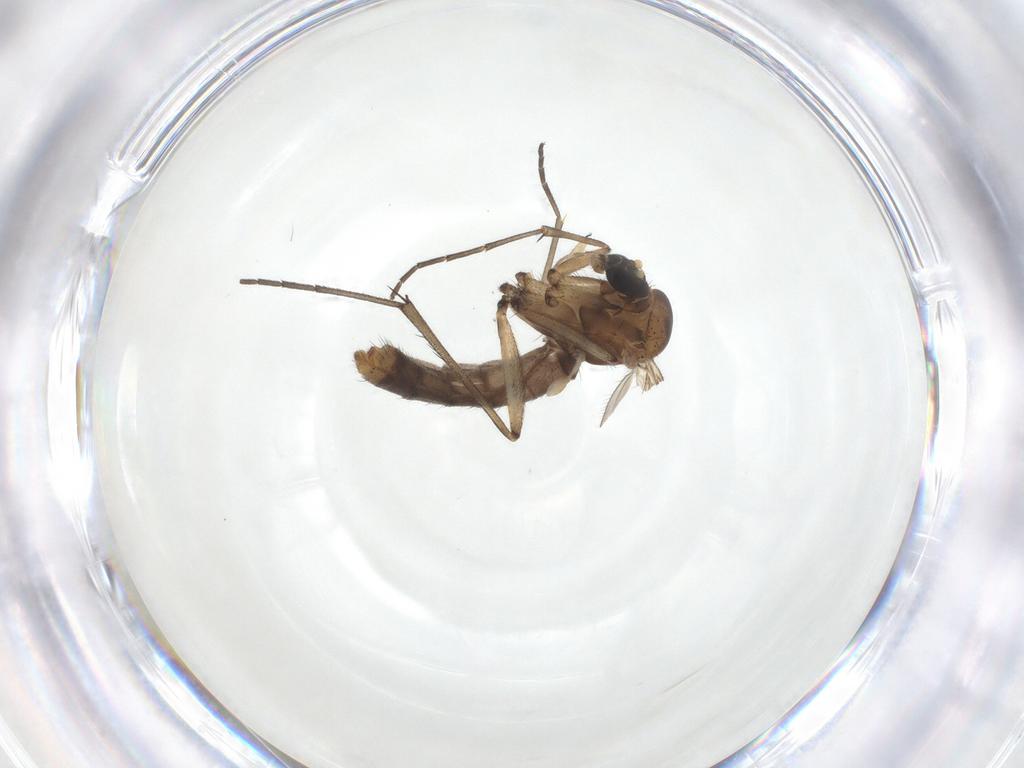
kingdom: Animalia
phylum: Arthropoda
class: Insecta
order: Diptera
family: Mycetophilidae
